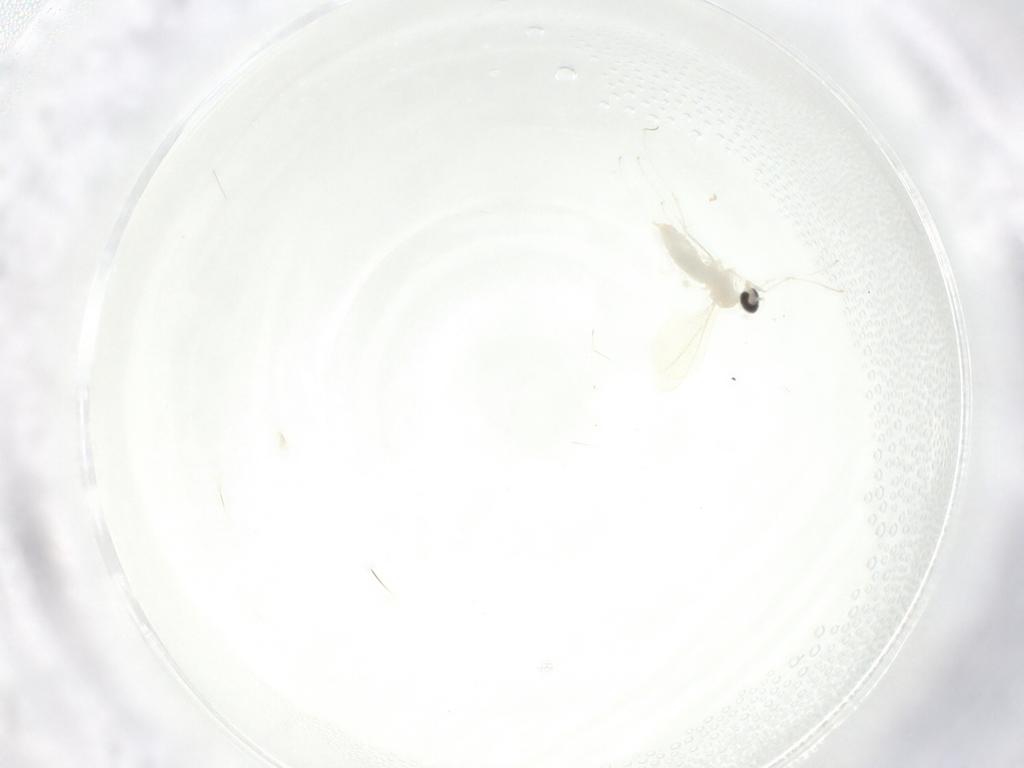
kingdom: Animalia
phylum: Arthropoda
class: Insecta
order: Diptera
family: Cecidomyiidae
